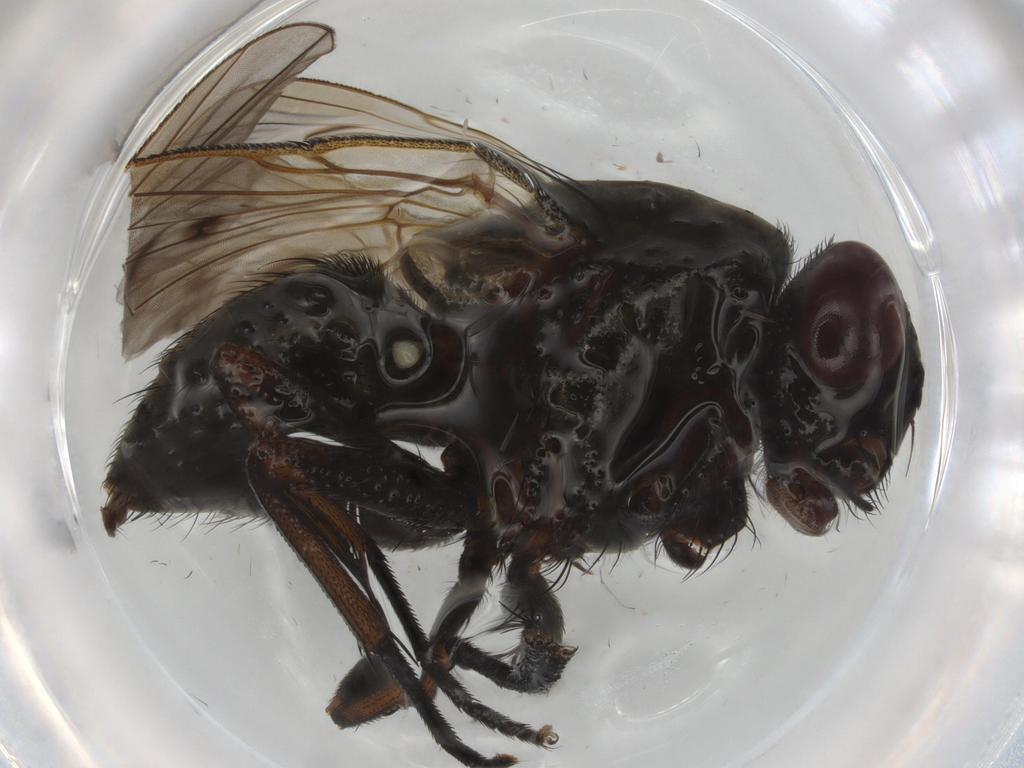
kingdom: Animalia
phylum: Arthropoda
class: Insecta
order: Diptera
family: Muscidae
